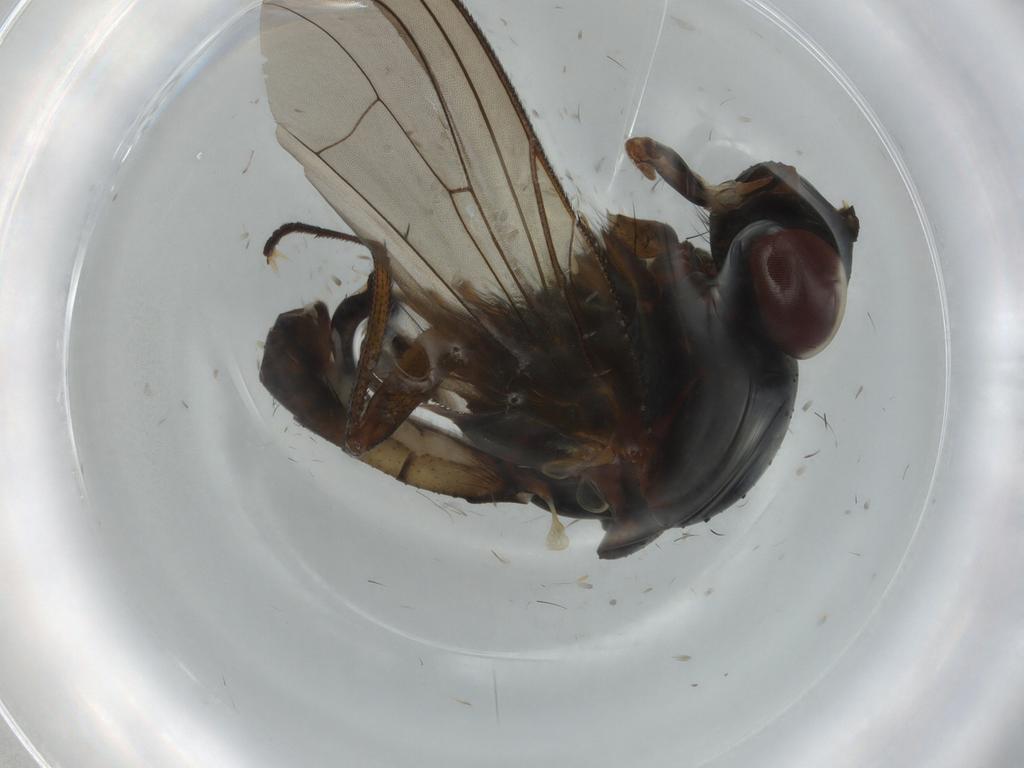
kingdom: Animalia
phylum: Arthropoda
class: Insecta
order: Diptera
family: Anthomyiidae
